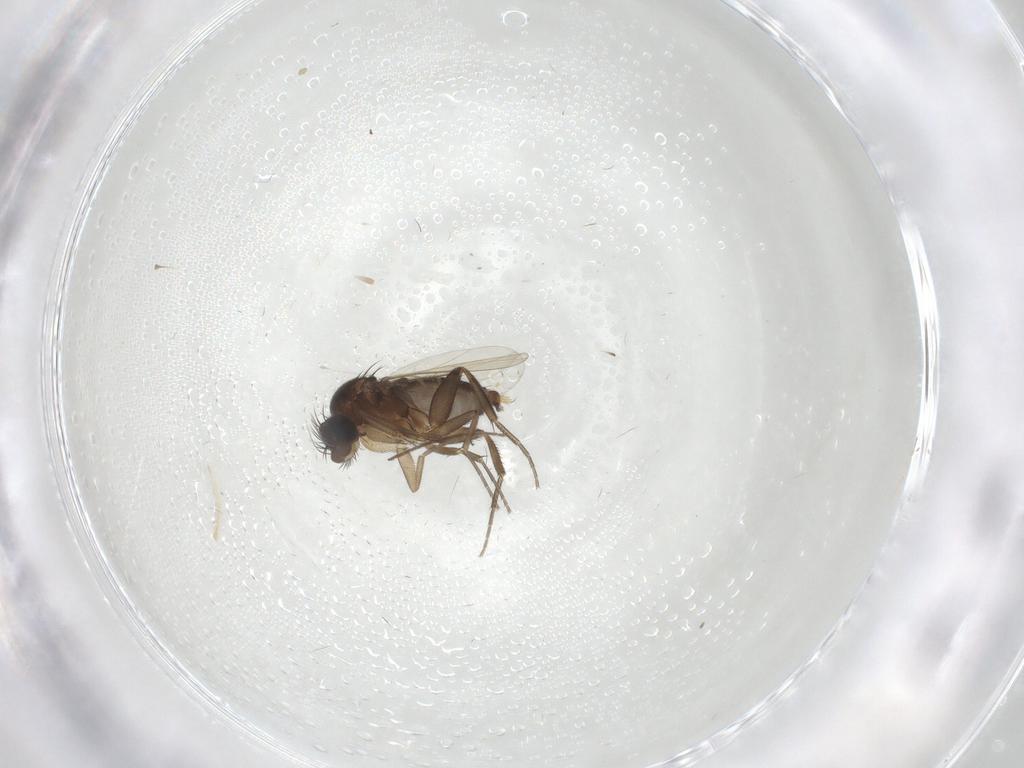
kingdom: Animalia
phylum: Arthropoda
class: Insecta
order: Diptera
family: Phoridae
